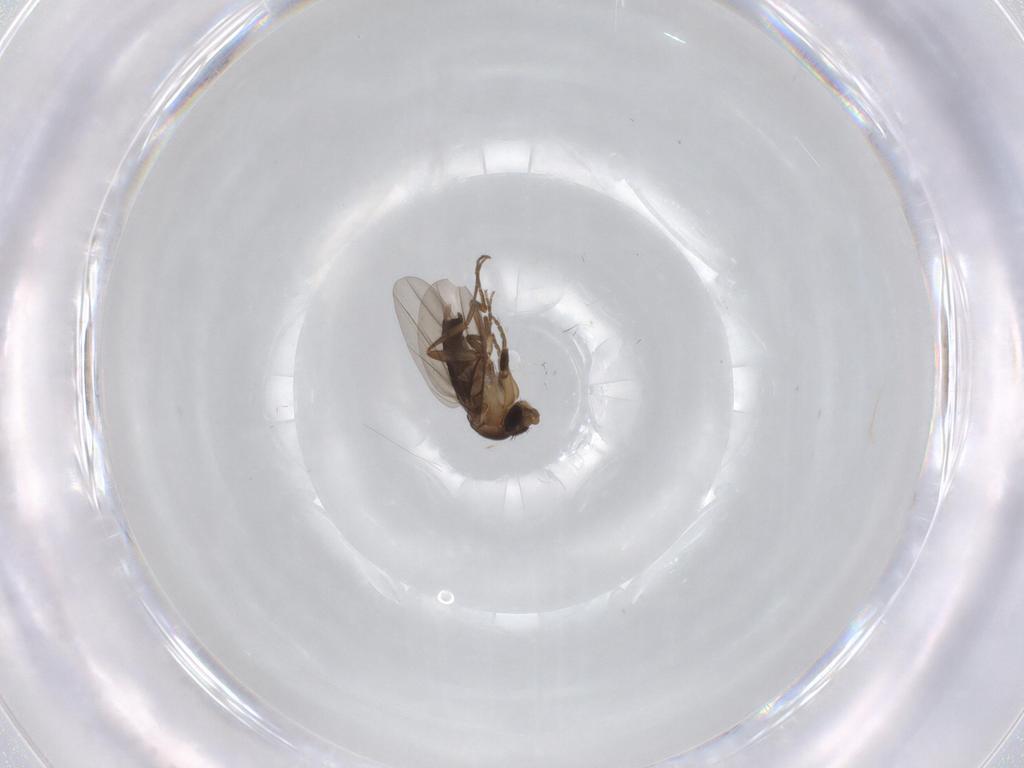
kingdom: Animalia
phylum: Arthropoda
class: Insecta
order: Diptera
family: Phoridae
